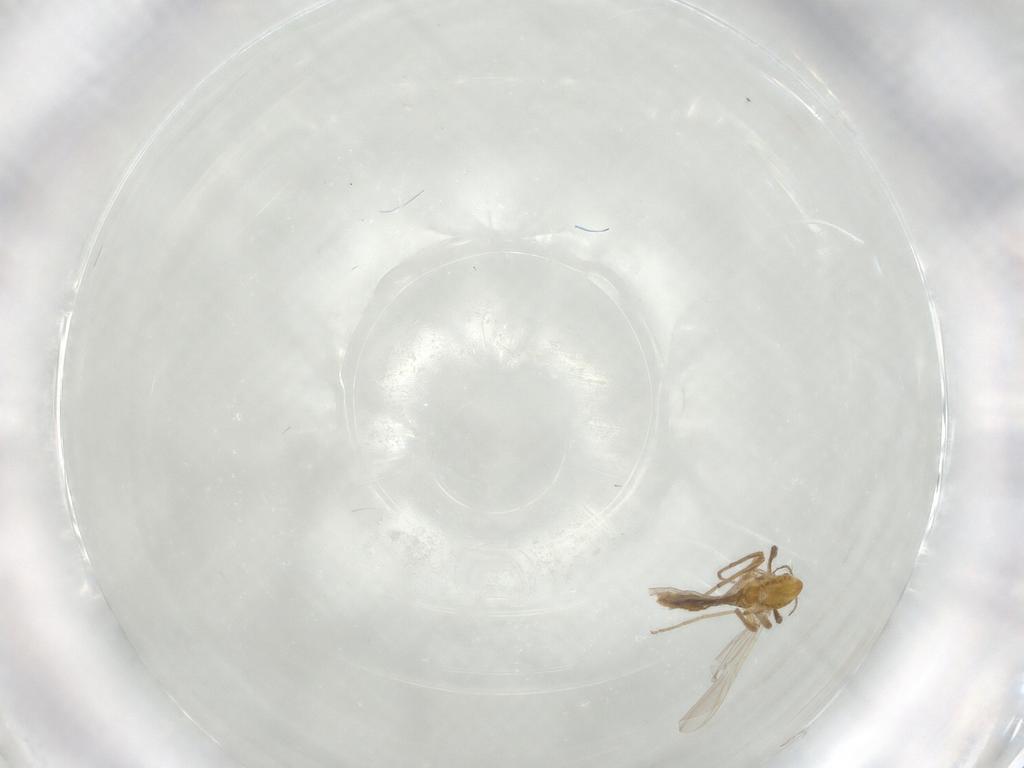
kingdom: Animalia
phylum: Arthropoda
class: Insecta
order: Diptera
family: Chironomidae
